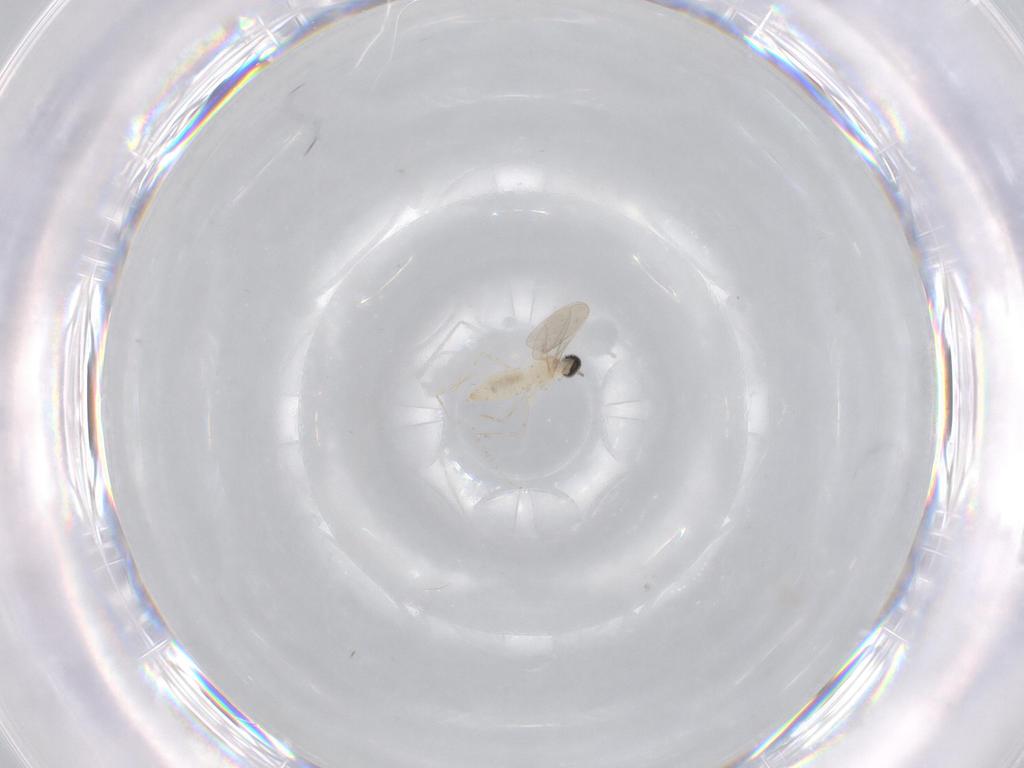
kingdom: Animalia
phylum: Arthropoda
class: Insecta
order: Diptera
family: Cecidomyiidae
